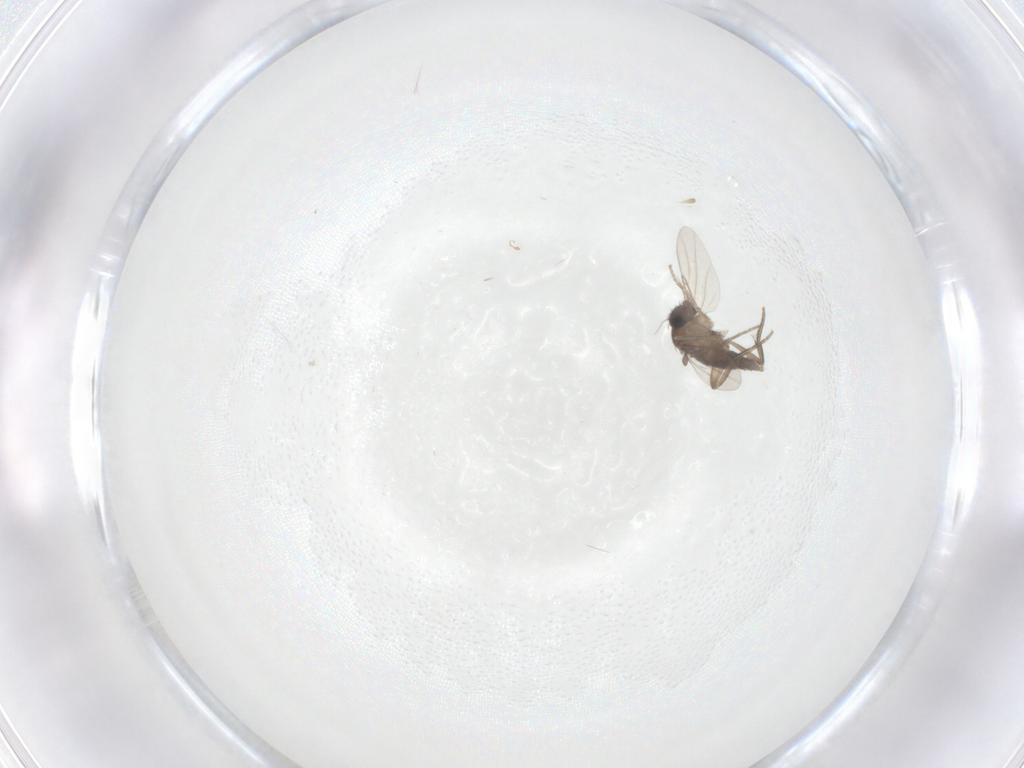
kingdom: Animalia
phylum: Arthropoda
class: Insecta
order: Diptera
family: Phoridae
